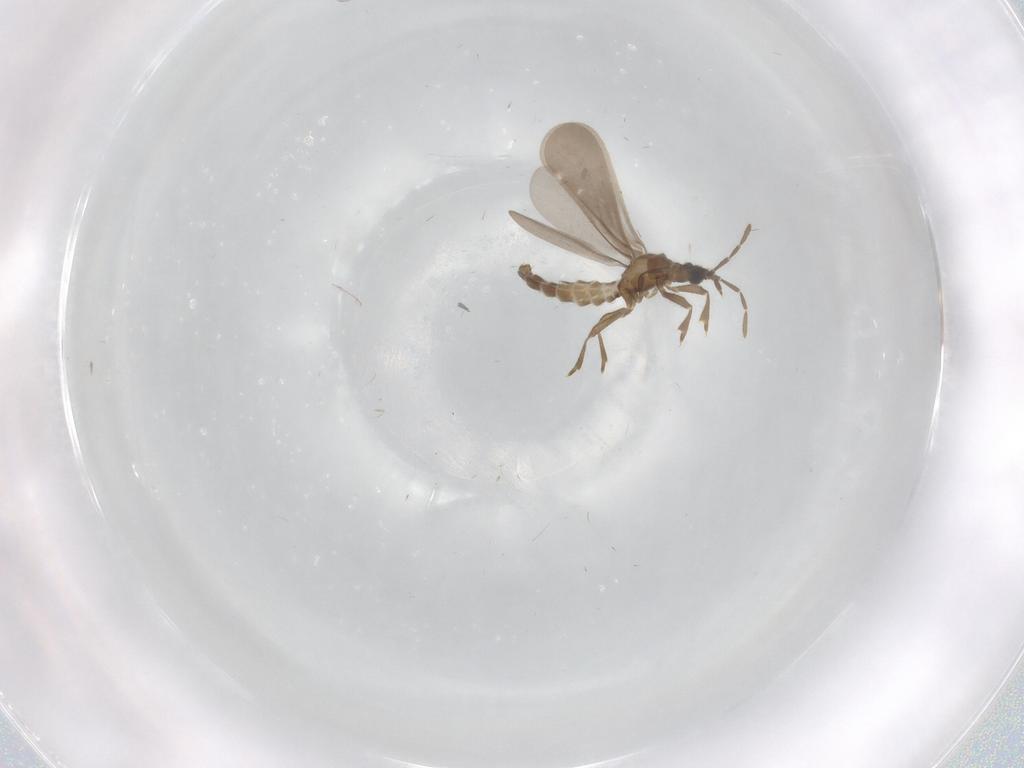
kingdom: Animalia
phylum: Arthropoda
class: Insecta
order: Hemiptera
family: Enicocephalidae
